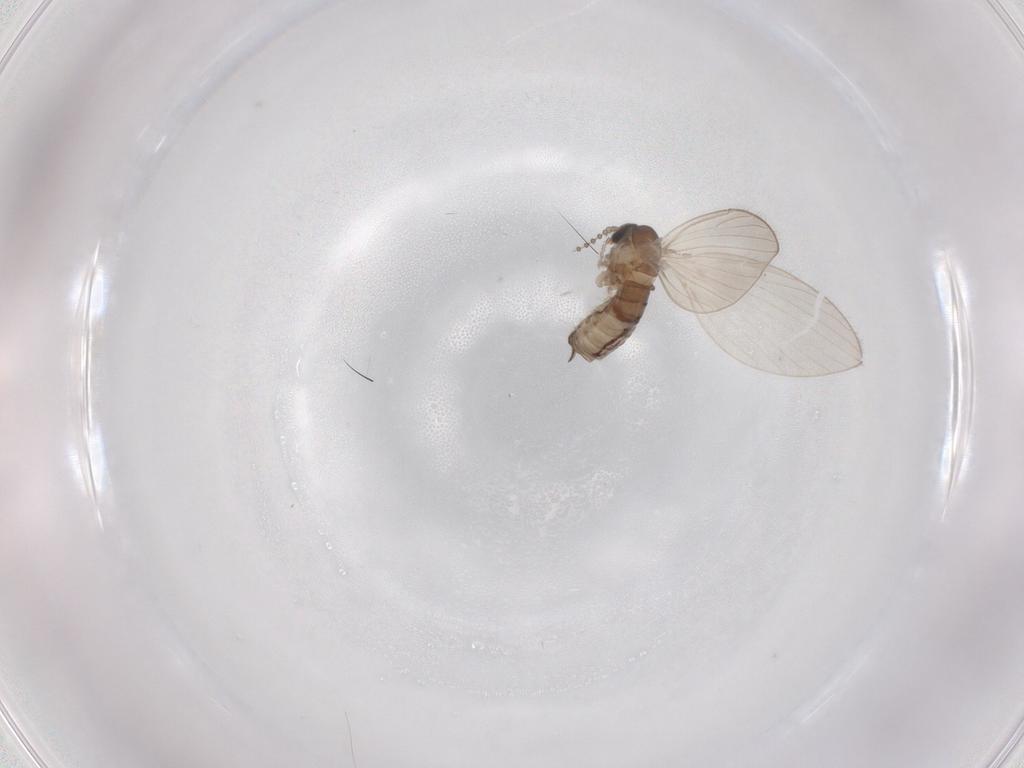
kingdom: Animalia
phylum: Arthropoda
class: Insecta
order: Diptera
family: Psychodidae
